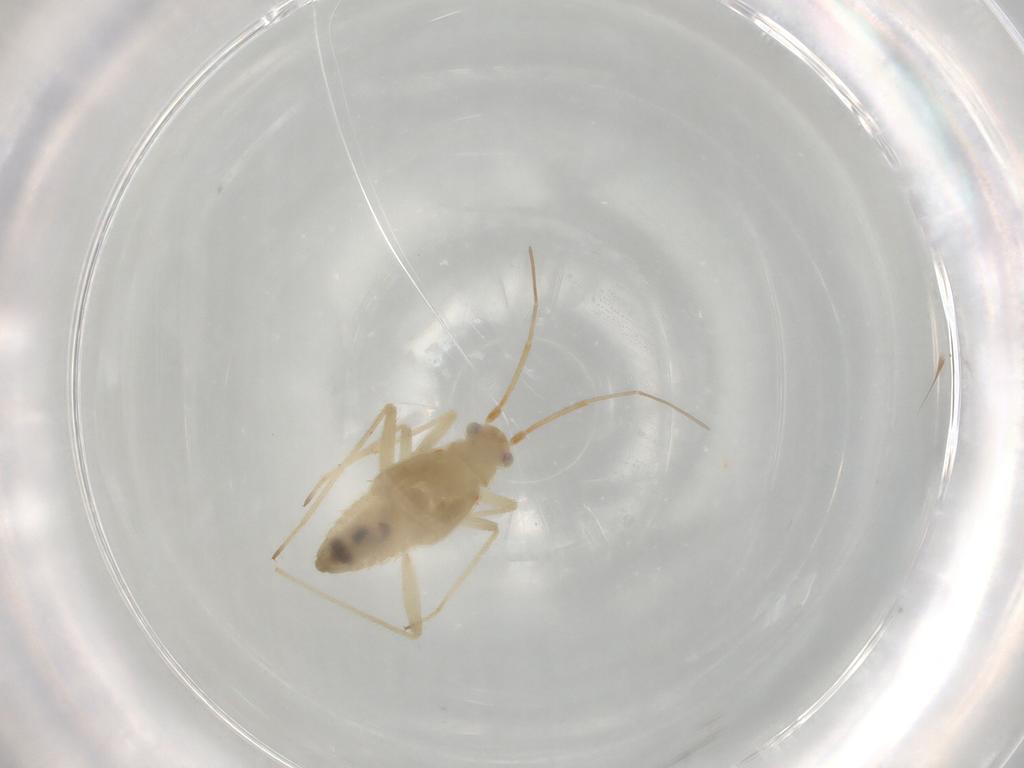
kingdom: Animalia
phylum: Arthropoda
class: Insecta
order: Hemiptera
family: Miridae
